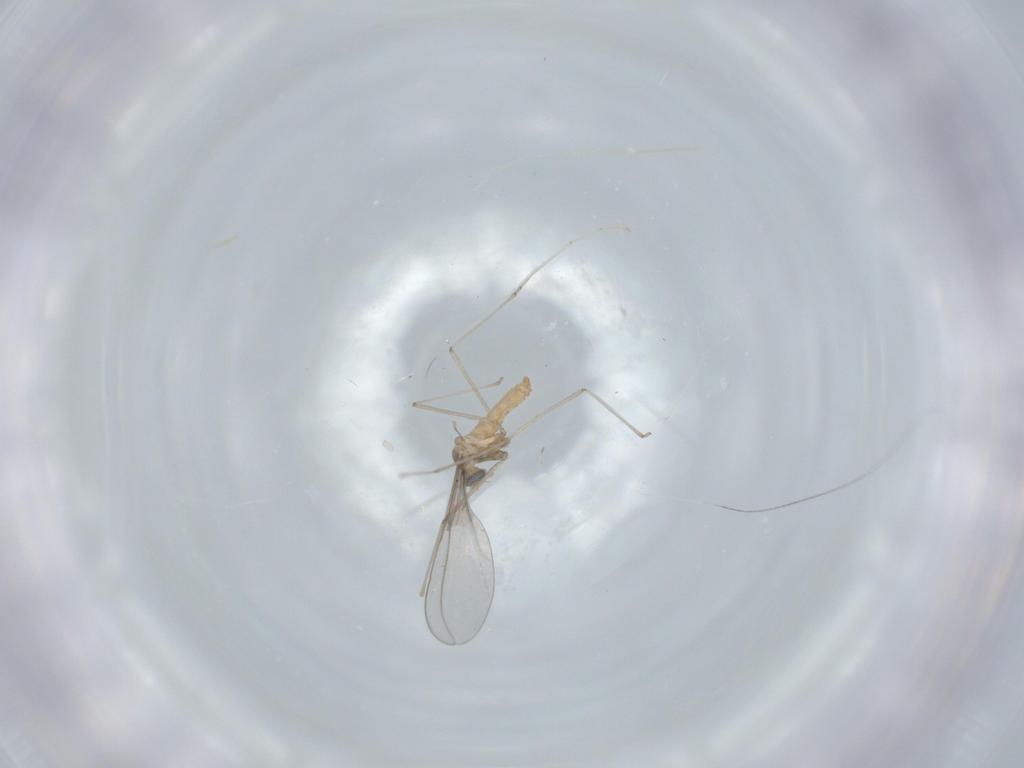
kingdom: Animalia
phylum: Arthropoda
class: Insecta
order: Diptera
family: Cecidomyiidae
